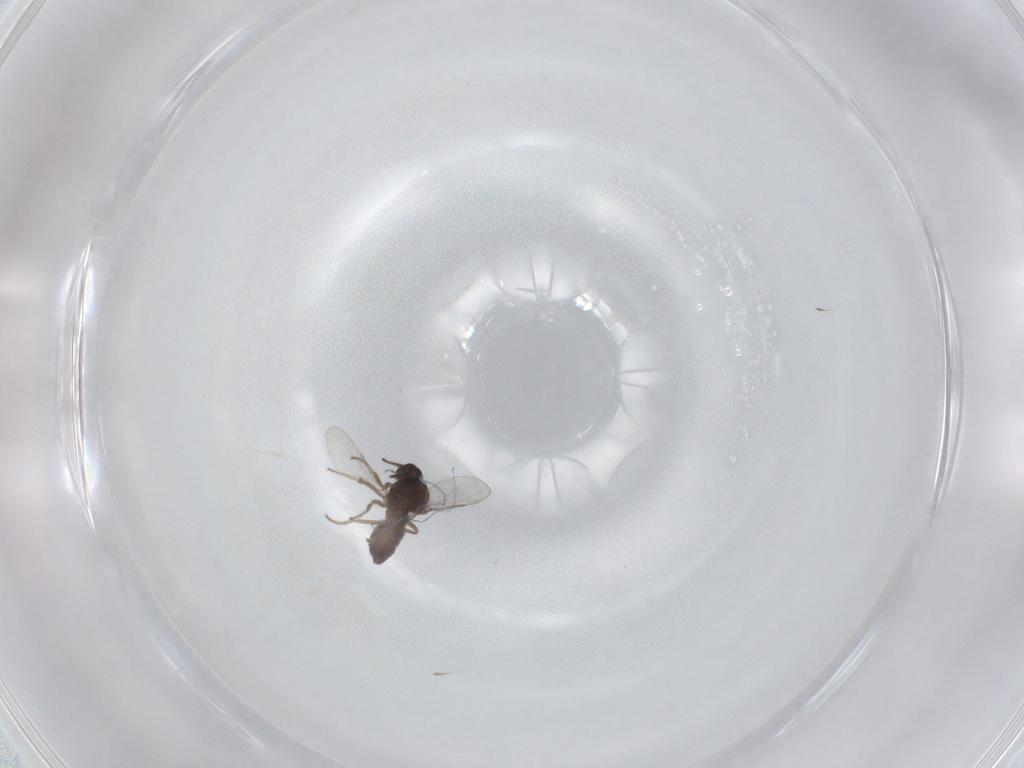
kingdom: Animalia
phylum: Arthropoda
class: Insecta
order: Diptera
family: Ceratopogonidae
